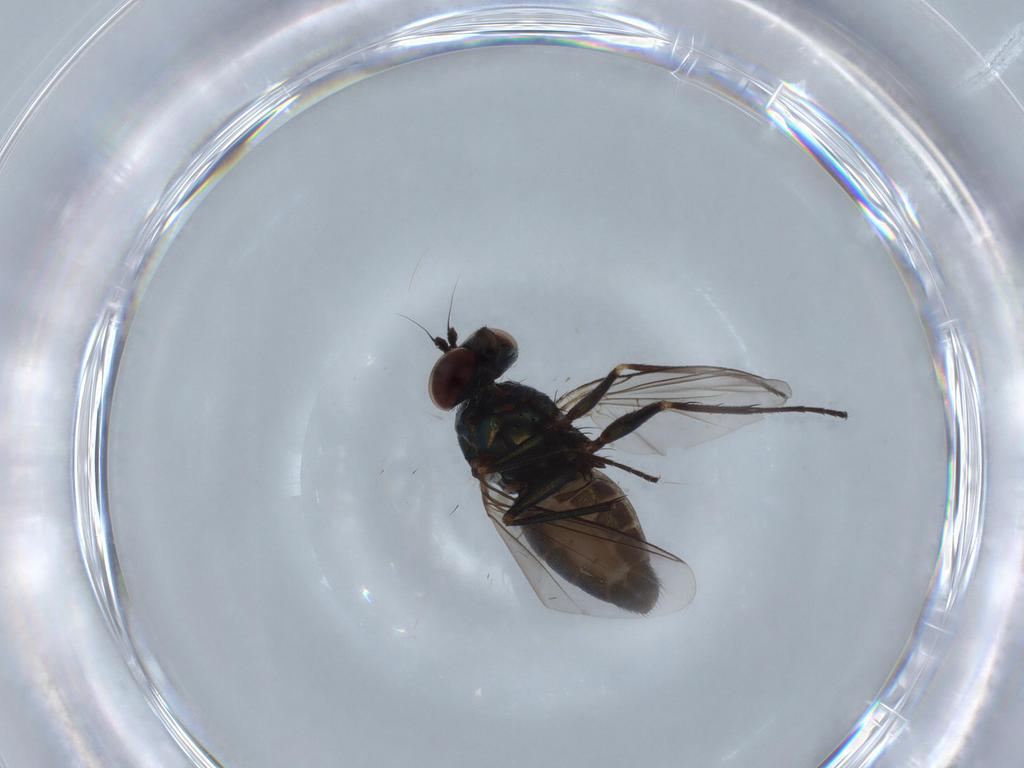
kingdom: Animalia
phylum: Arthropoda
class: Insecta
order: Diptera
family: Dolichopodidae
